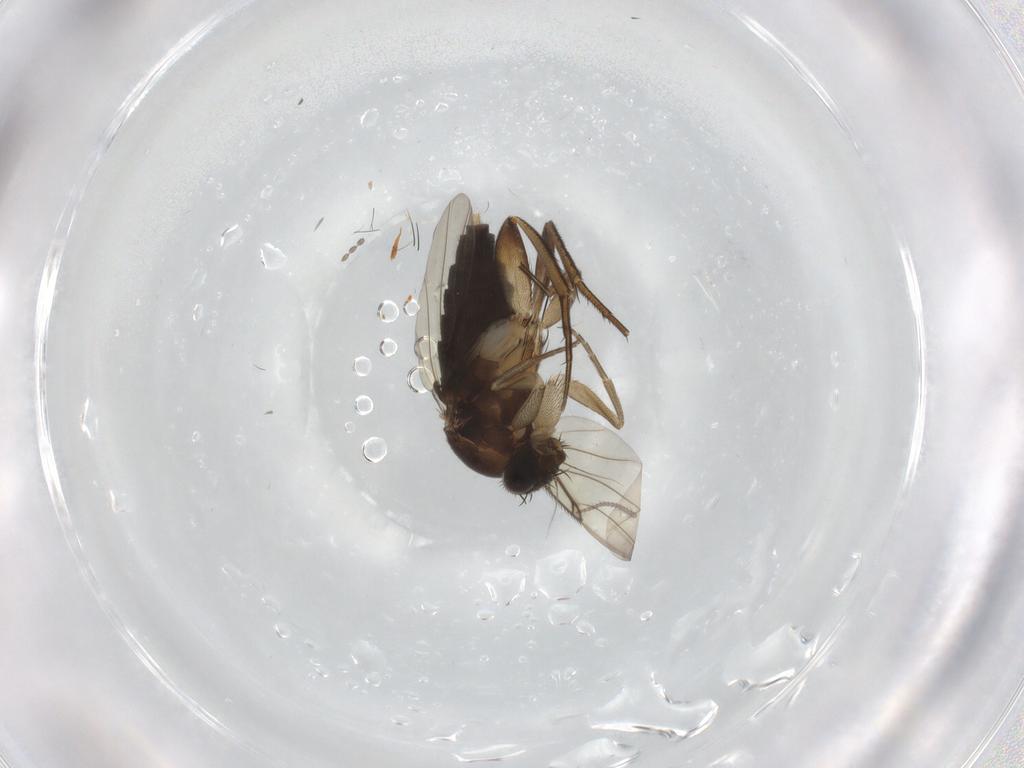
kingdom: Animalia
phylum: Arthropoda
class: Insecta
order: Diptera
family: Phoridae
